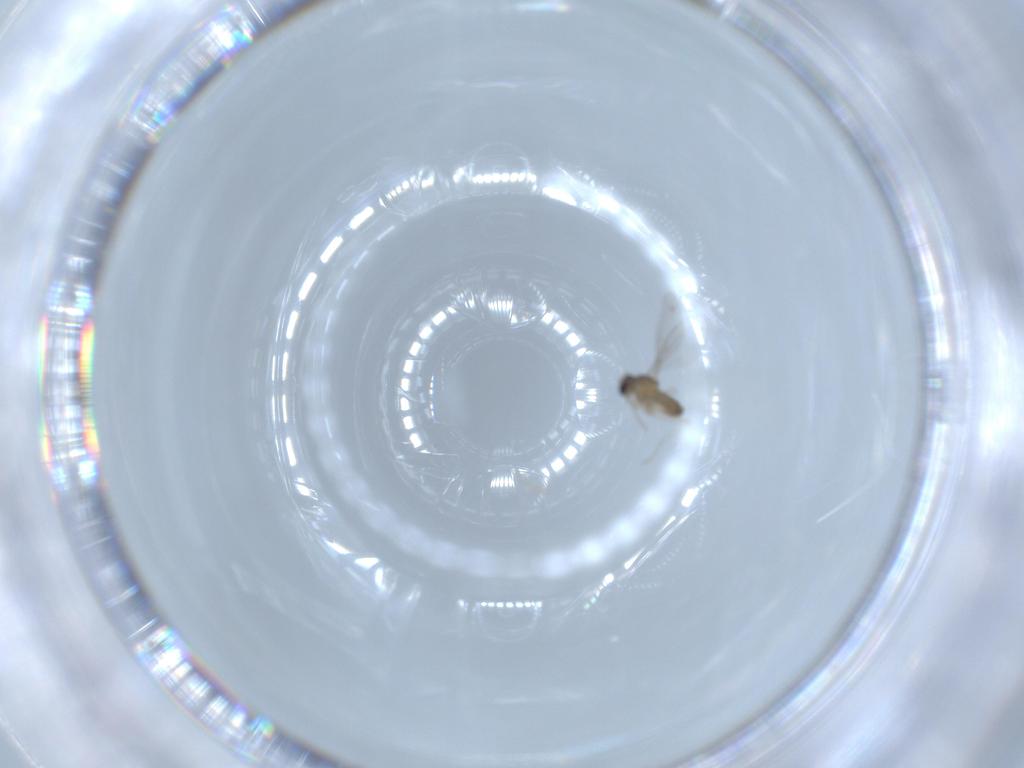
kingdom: Animalia
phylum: Arthropoda
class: Insecta
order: Diptera
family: Cecidomyiidae
